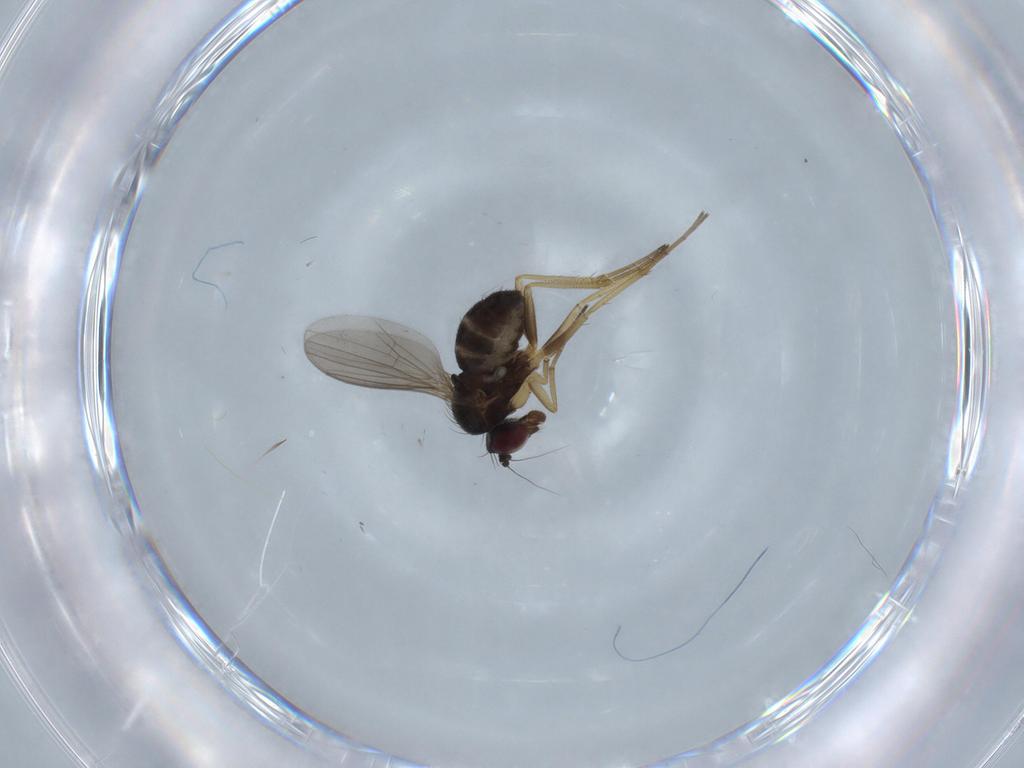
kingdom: Animalia
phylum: Arthropoda
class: Insecta
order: Diptera
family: Dolichopodidae
